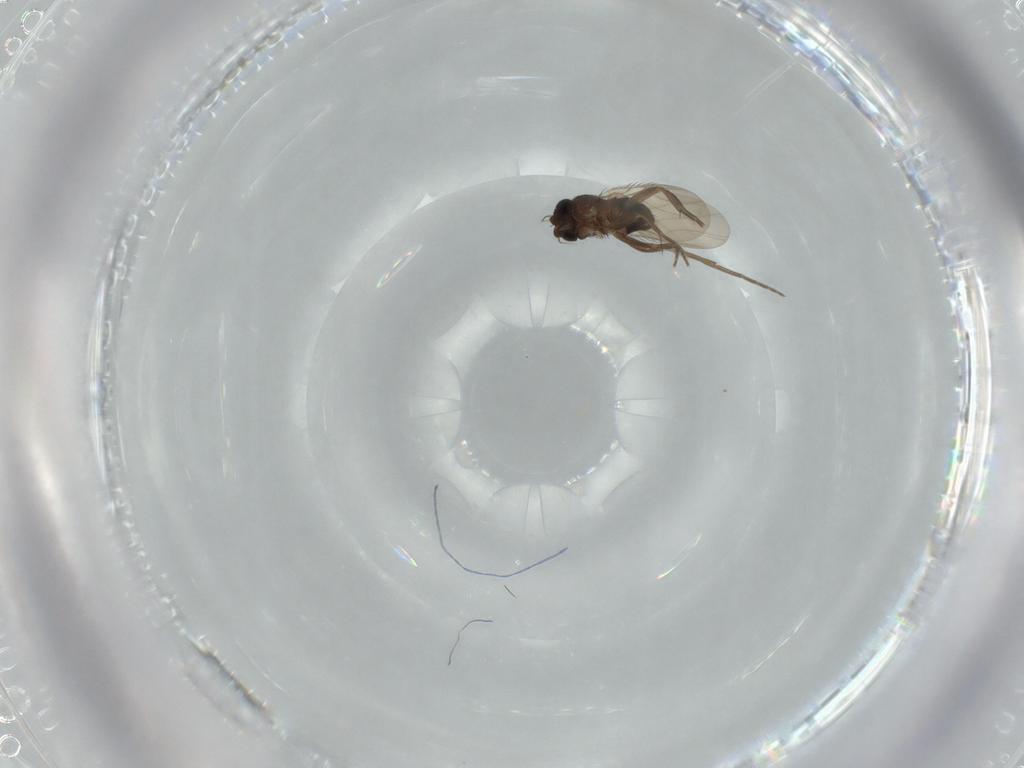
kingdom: Animalia
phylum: Arthropoda
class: Insecta
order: Diptera
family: Phoridae
